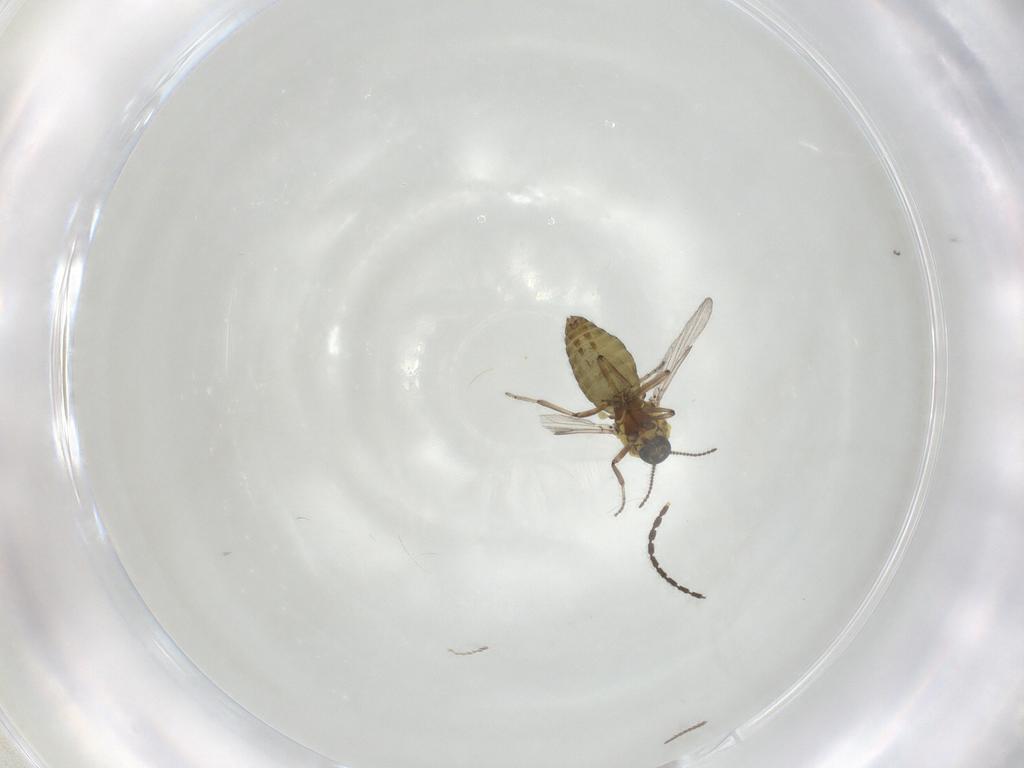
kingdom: Animalia
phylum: Arthropoda
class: Insecta
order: Diptera
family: Ceratopogonidae
